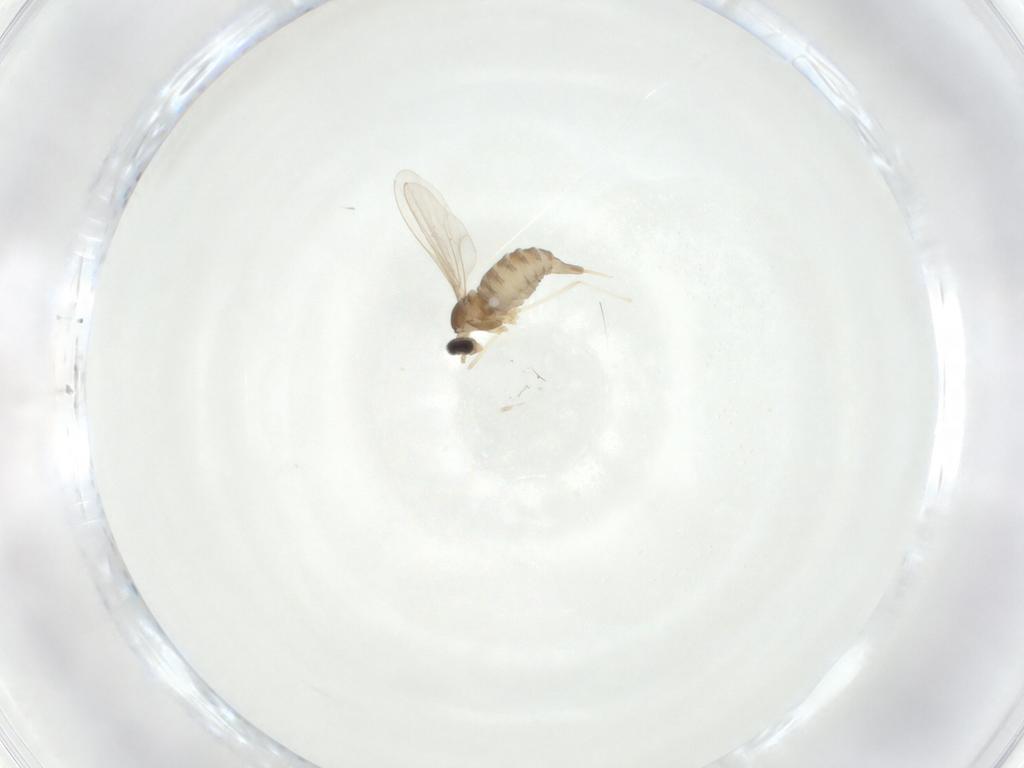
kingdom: Animalia
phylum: Arthropoda
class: Insecta
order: Diptera
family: Cecidomyiidae
